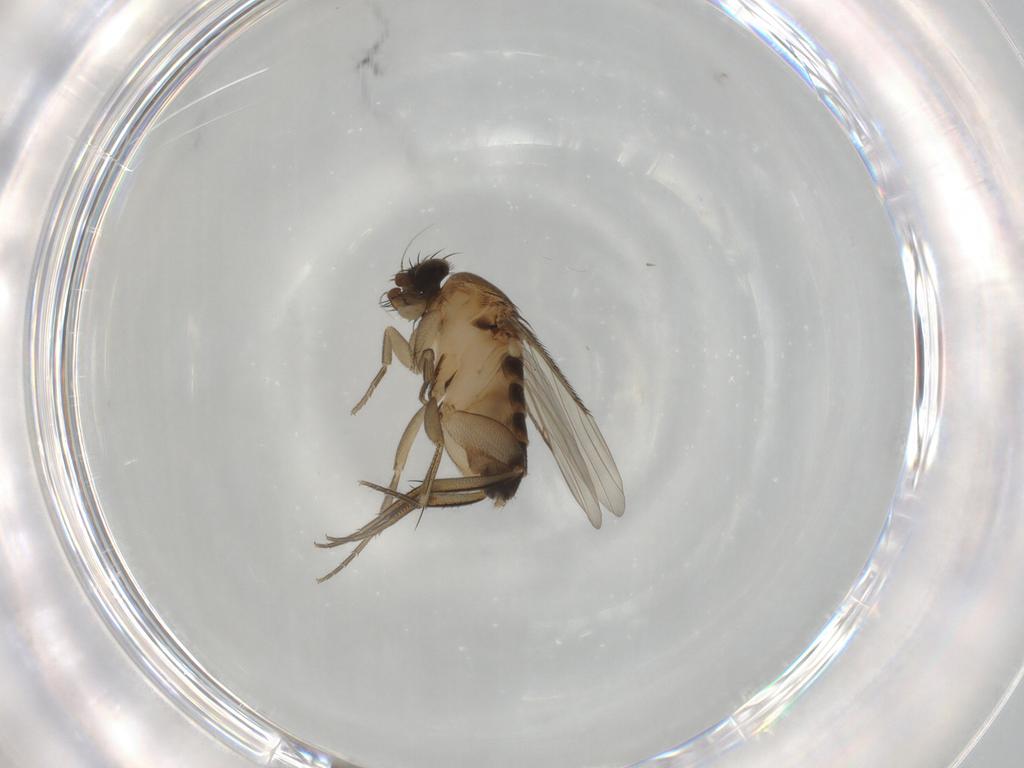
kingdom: Animalia
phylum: Arthropoda
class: Insecta
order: Diptera
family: Phoridae
